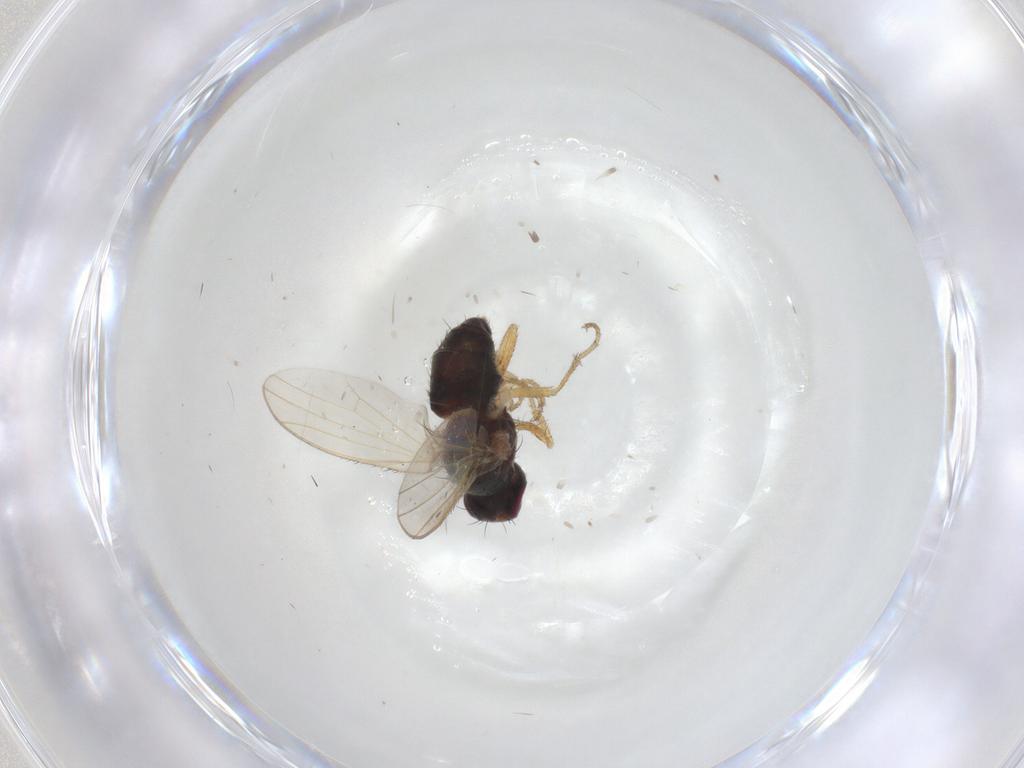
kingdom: Animalia
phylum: Arthropoda
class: Insecta
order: Diptera
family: Heleomyzidae
